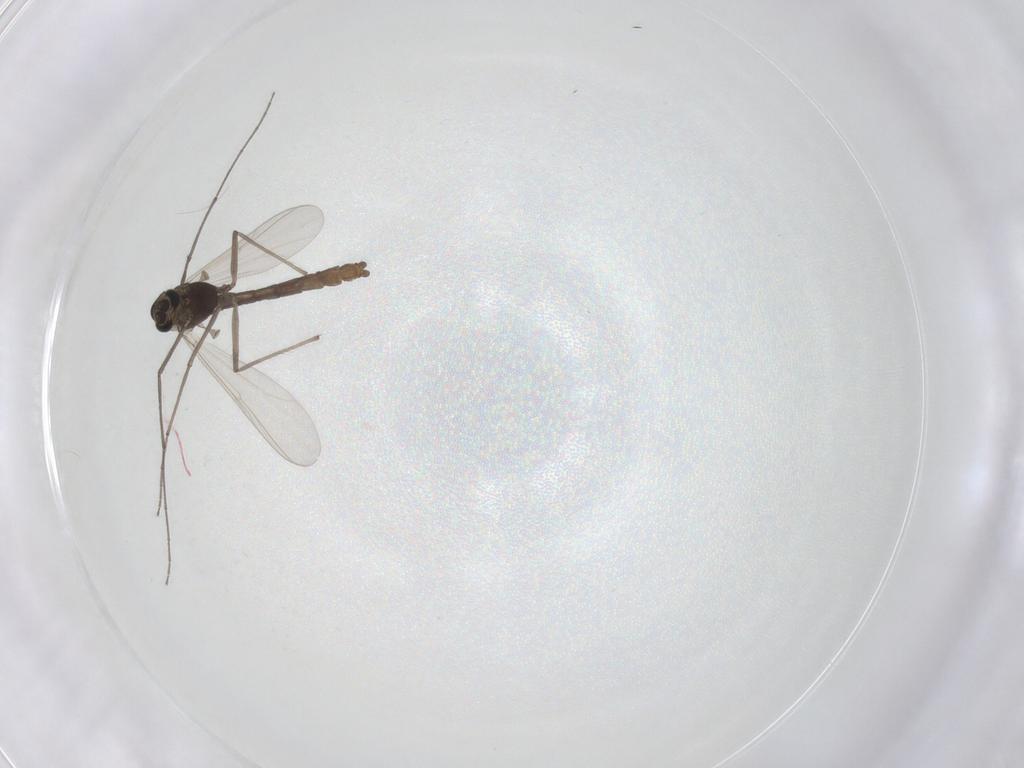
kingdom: Animalia
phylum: Arthropoda
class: Insecta
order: Diptera
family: Chironomidae
